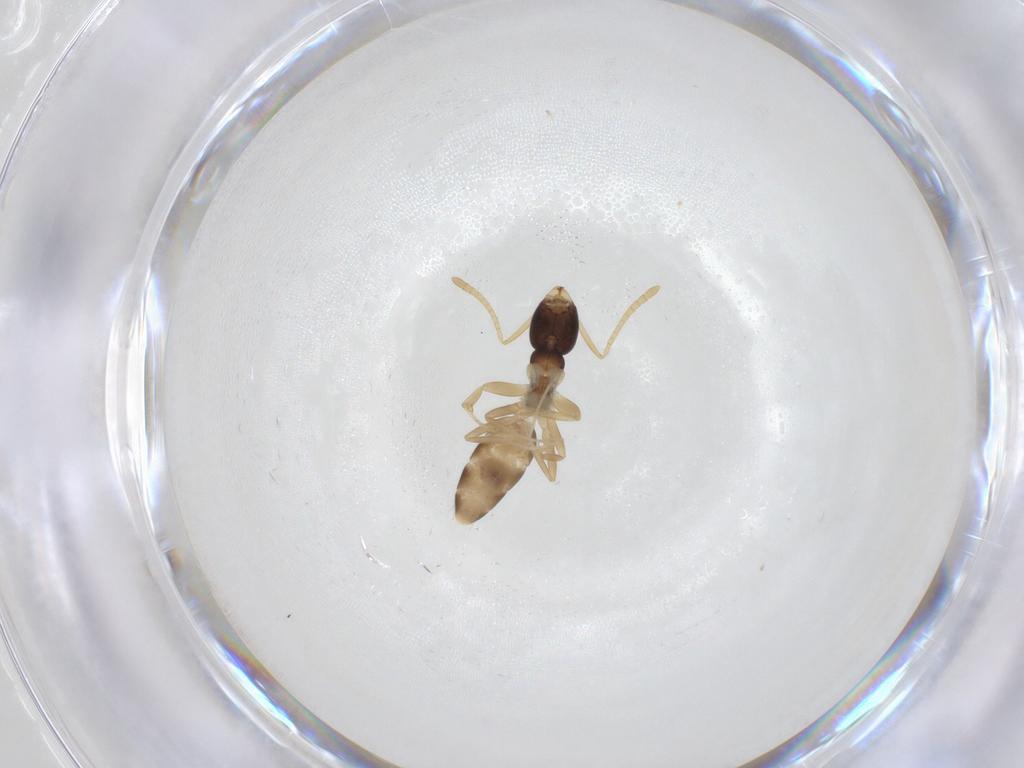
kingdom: Animalia
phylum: Arthropoda
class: Insecta
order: Hymenoptera
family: Formicidae
